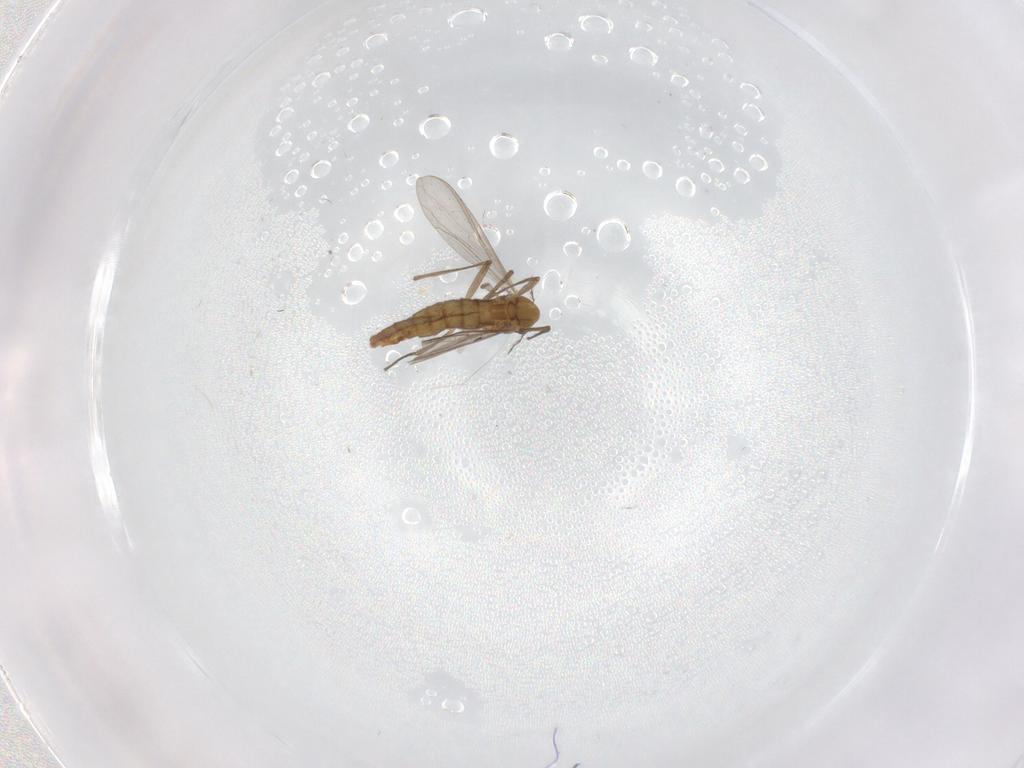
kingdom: Animalia
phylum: Arthropoda
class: Insecta
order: Diptera
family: Chironomidae
